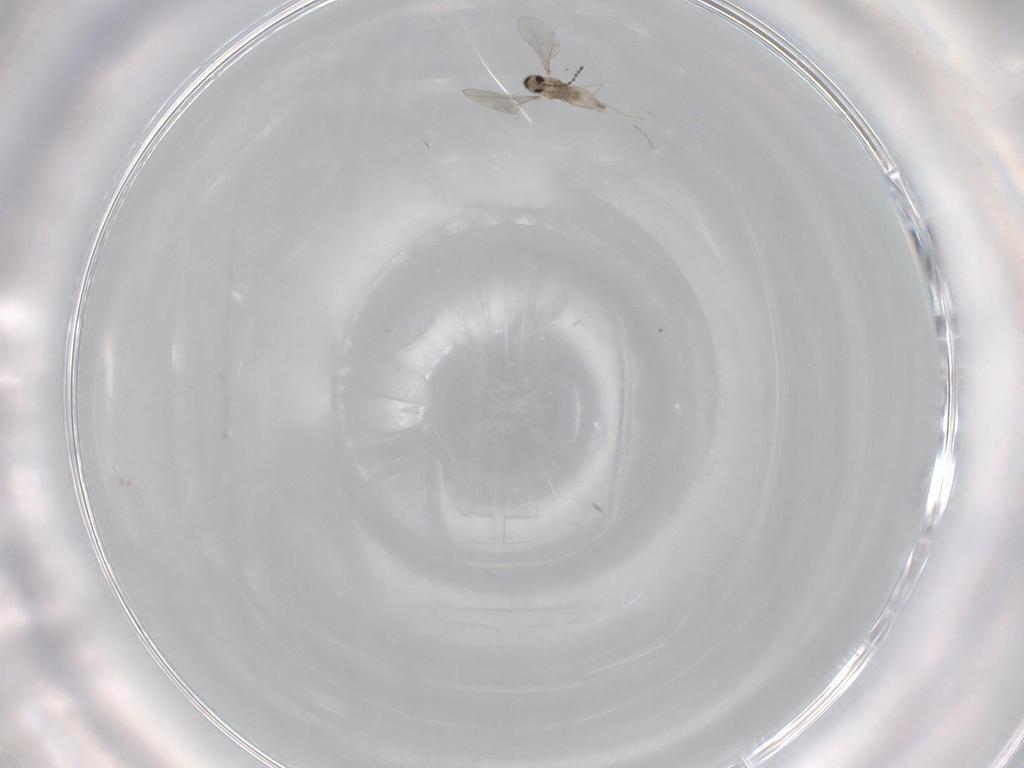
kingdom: Animalia
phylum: Arthropoda
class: Insecta
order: Diptera
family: Cecidomyiidae
